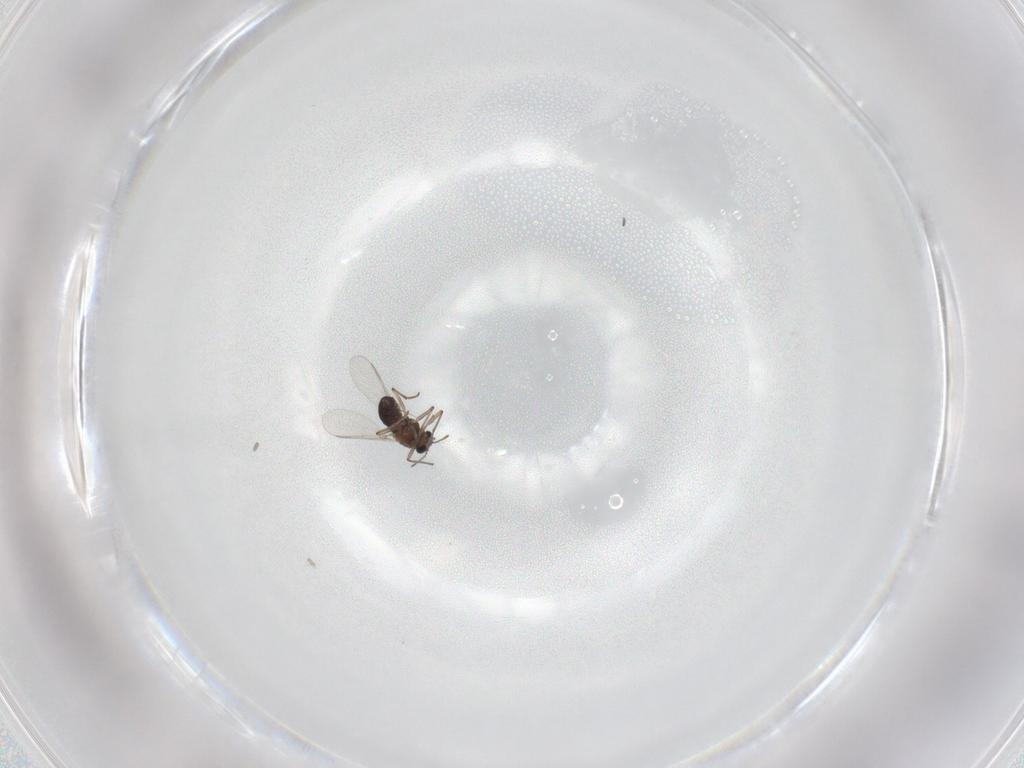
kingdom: Animalia
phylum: Arthropoda
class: Insecta
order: Diptera
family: Chironomidae
